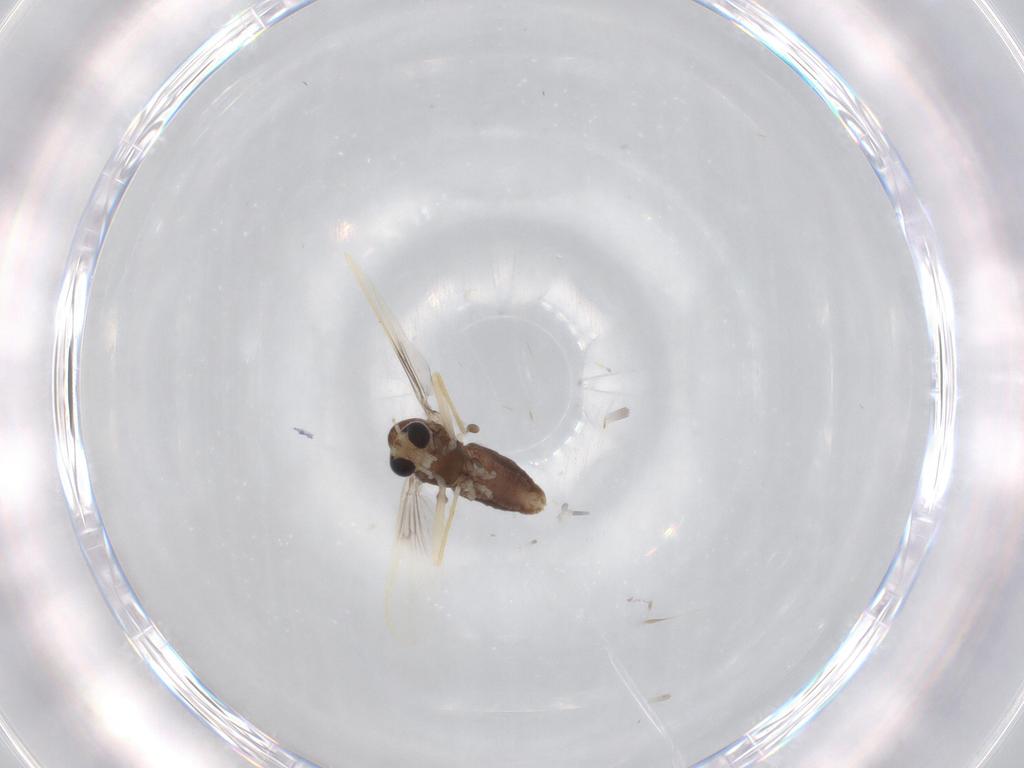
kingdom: Animalia
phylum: Arthropoda
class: Insecta
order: Diptera
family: Chironomidae
